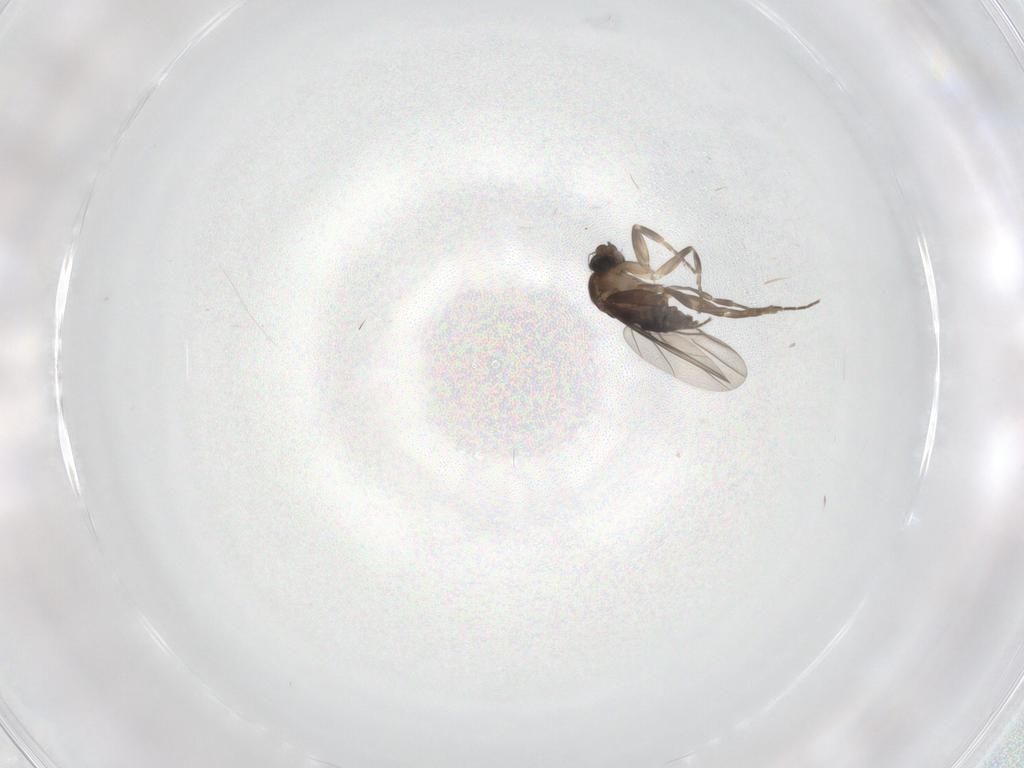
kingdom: Animalia
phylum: Arthropoda
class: Insecta
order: Diptera
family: Phoridae
